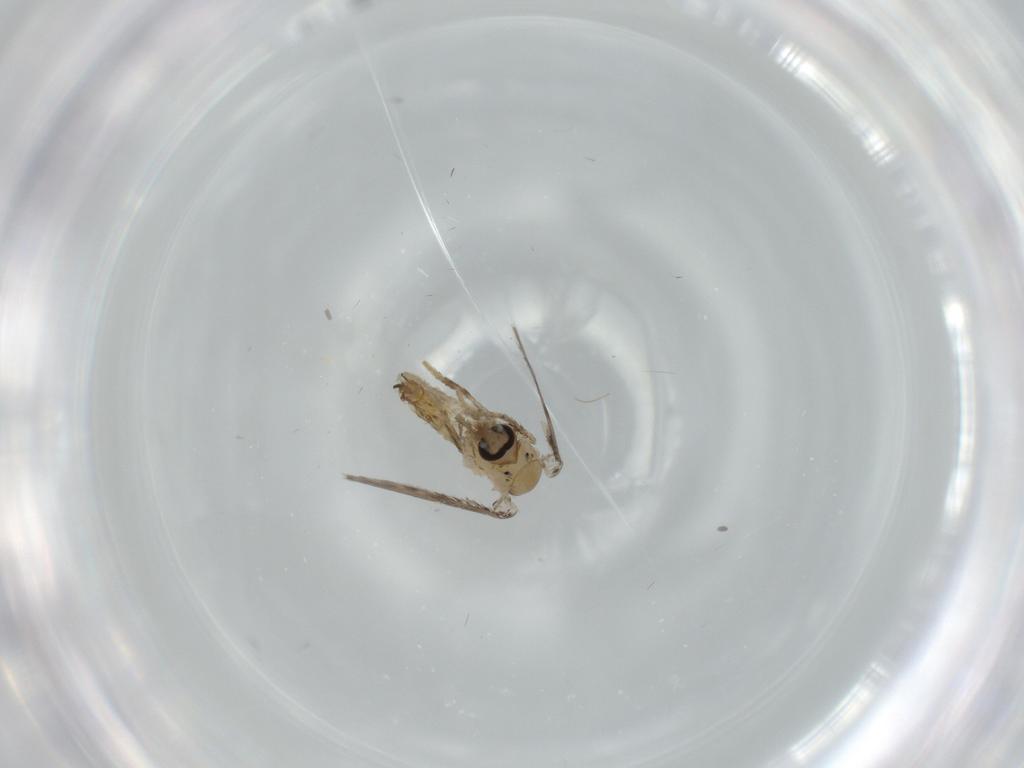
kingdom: Animalia
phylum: Arthropoda
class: Insecta
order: Diptera
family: Psychodidae
